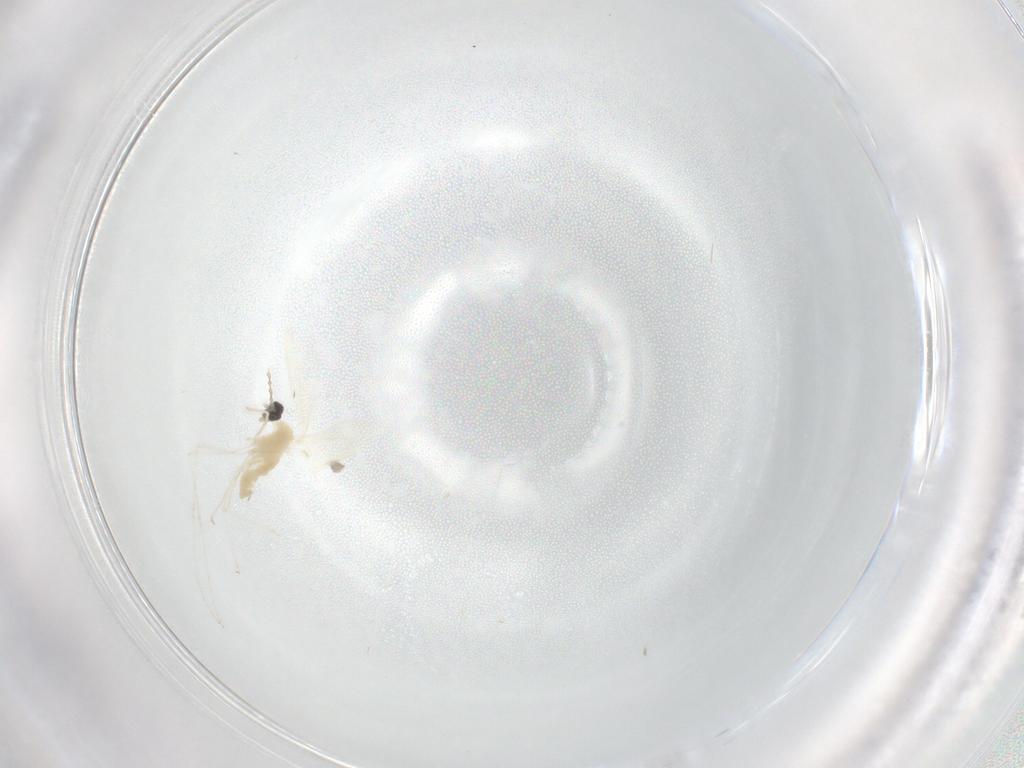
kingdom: Animalia
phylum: Arthropoda
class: Insecta
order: Diptera
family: Cecidomyiidae
